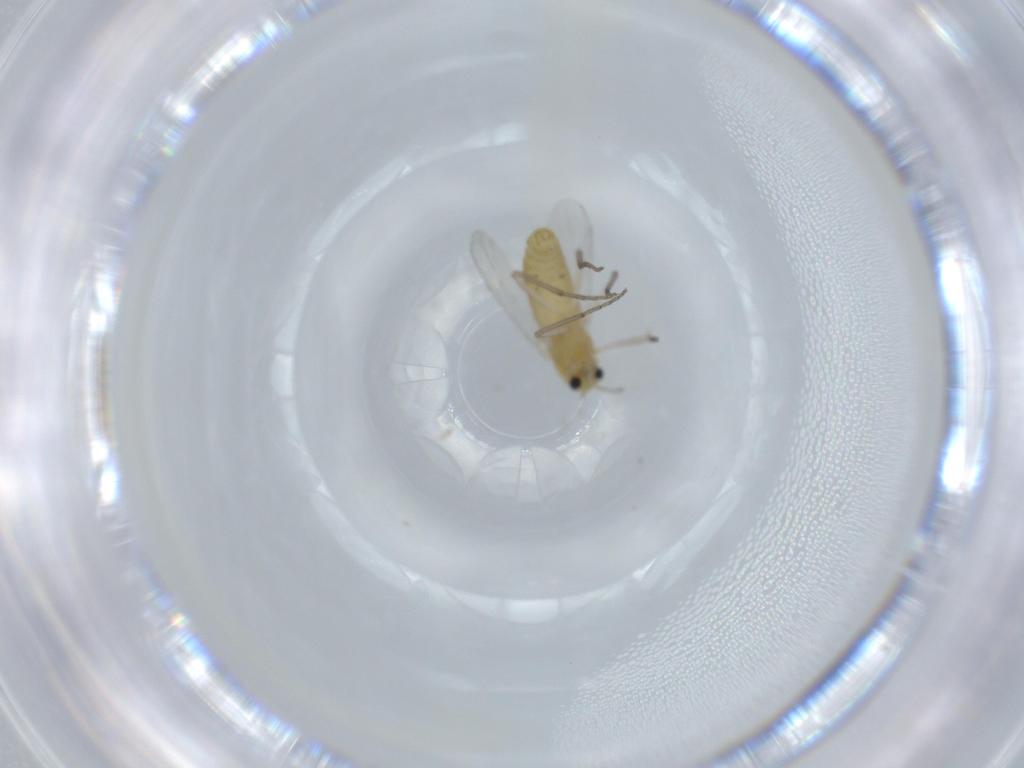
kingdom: Animalia
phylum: Arthropoda
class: Insecta
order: Diptera
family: Chironomidae
